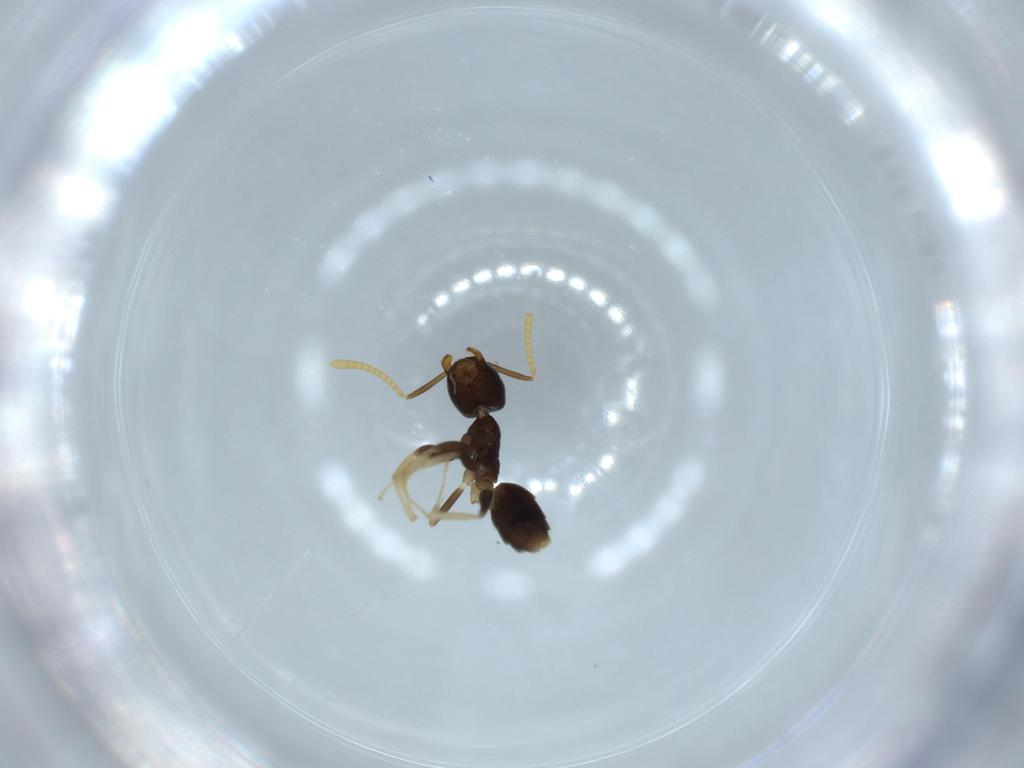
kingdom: Animalia
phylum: Arthropoda
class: Insecta
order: Hymenoptera
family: Formicidae
